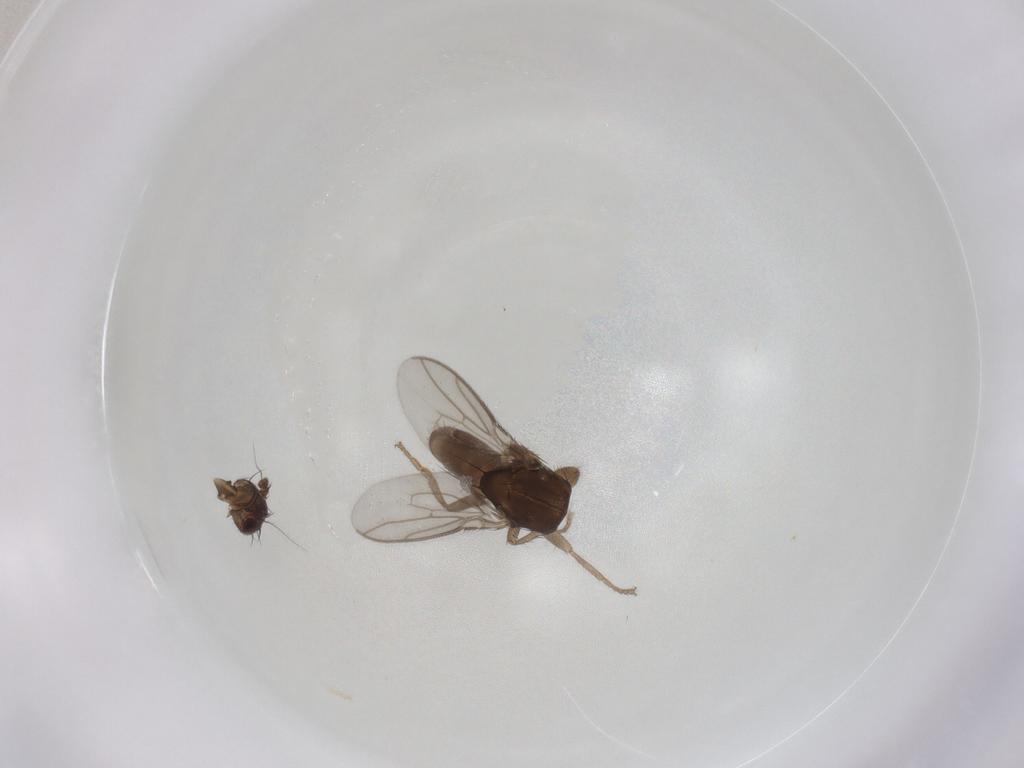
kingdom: Animalia
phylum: Arthropoda
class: Insecta
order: Diptera
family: Sphaeroceridae
